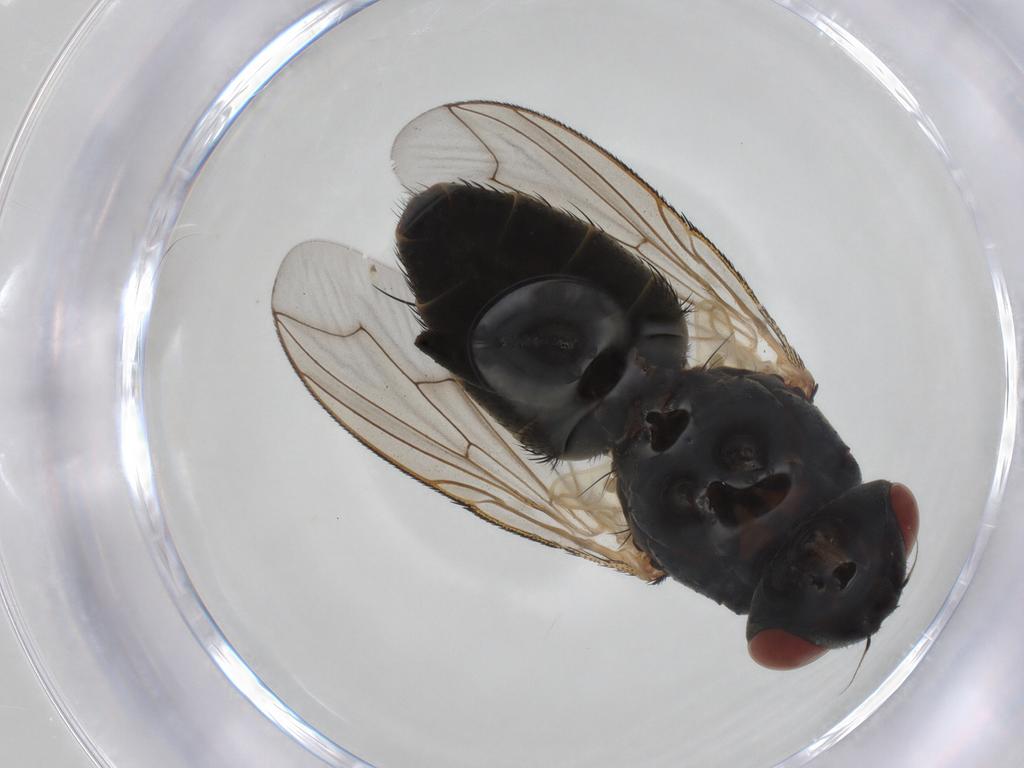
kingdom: Animalia
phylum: Arthropoda
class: Insecta
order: Diptera
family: Sarcophagidae
